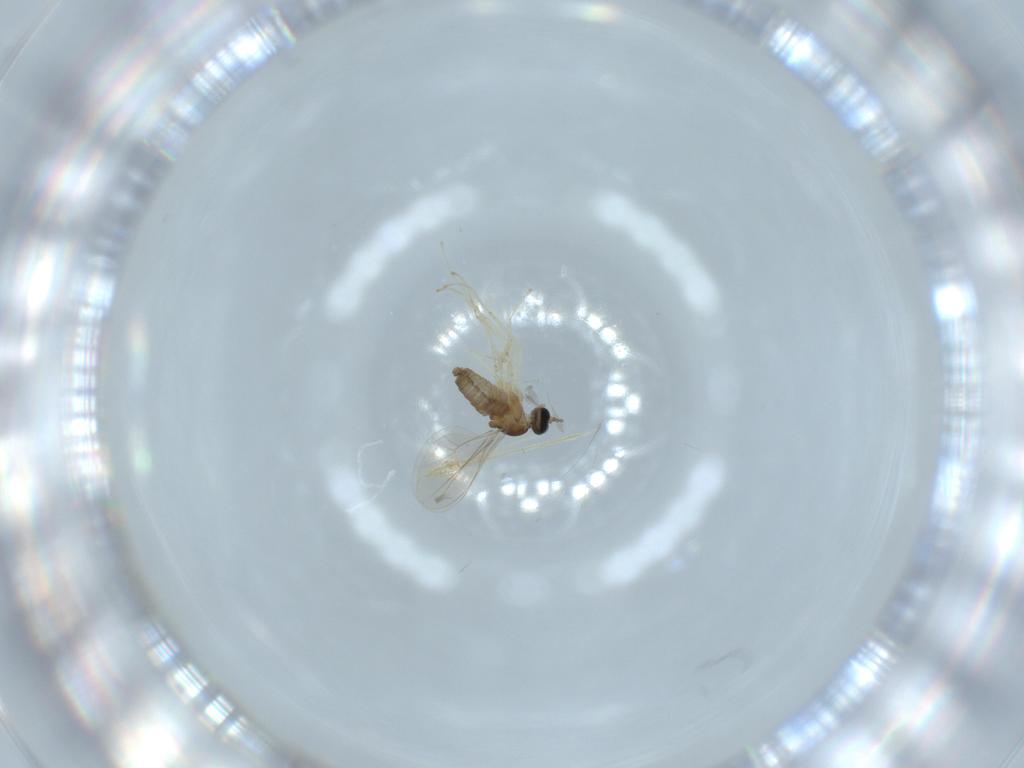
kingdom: Animalia
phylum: Arthropoda
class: Insecta
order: Diptera
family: Cecidomyiidae
